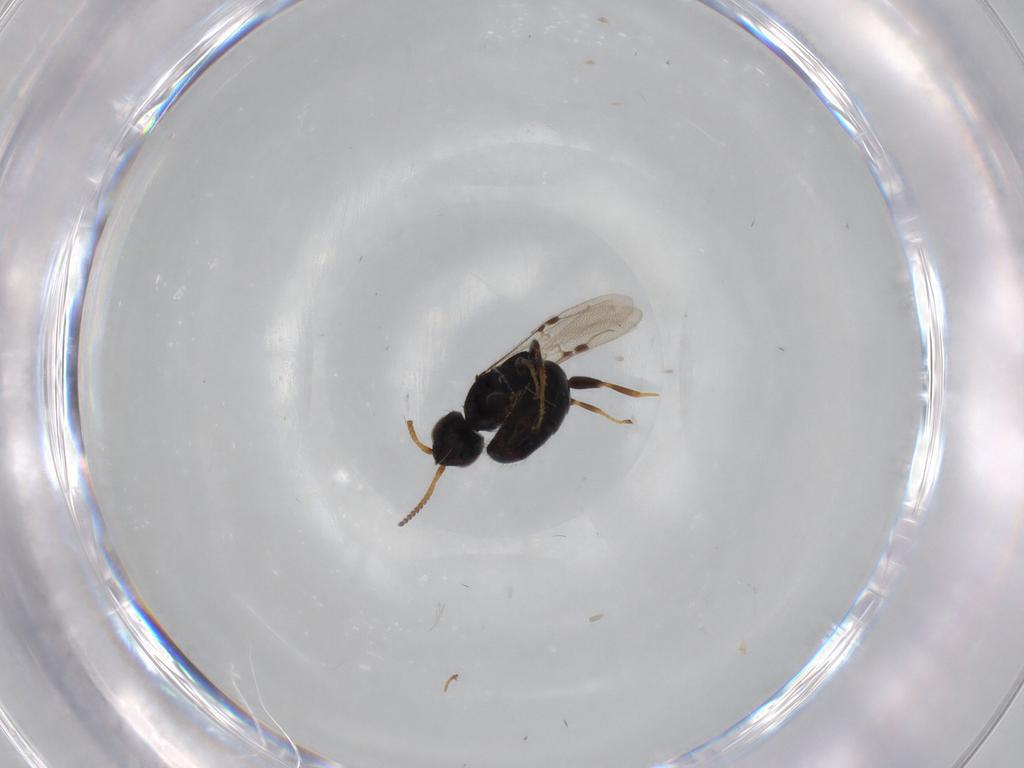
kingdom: Animalia
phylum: Arthropoda
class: Insecta
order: Hymenoptera
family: Bethylidae
